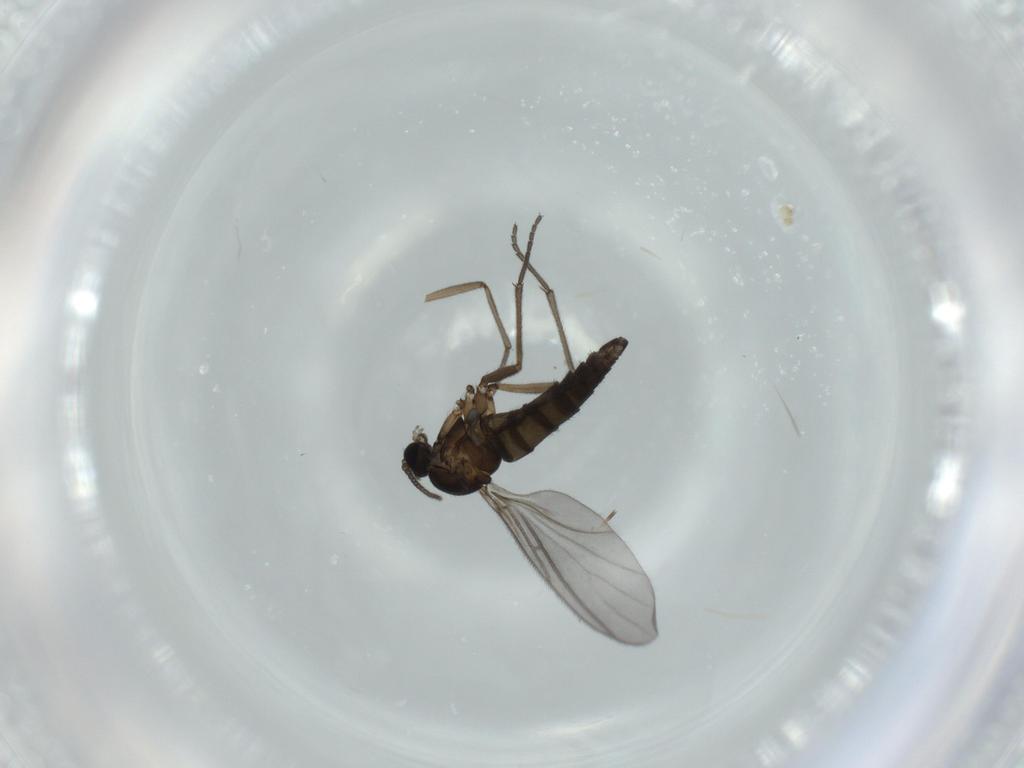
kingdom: Animalia
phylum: Arthropoda
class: Insecta
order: Diptera
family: Sciaridae
